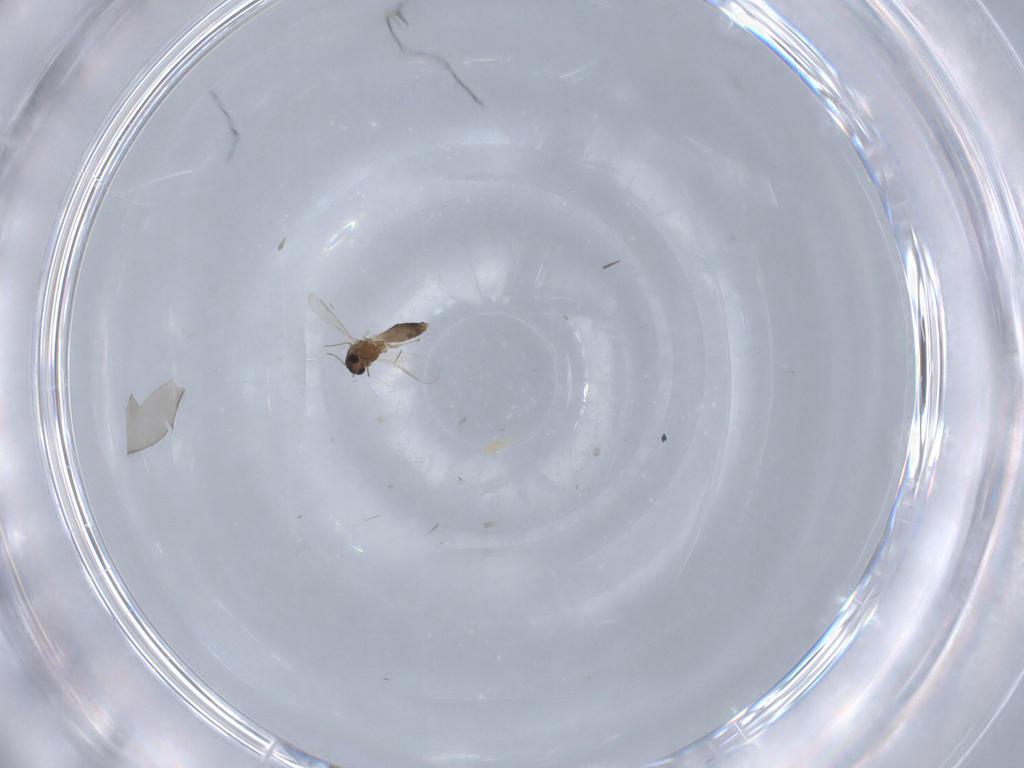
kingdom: Animalia
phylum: Arthropoda
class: Insecta
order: Diptera
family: Chironomidae
